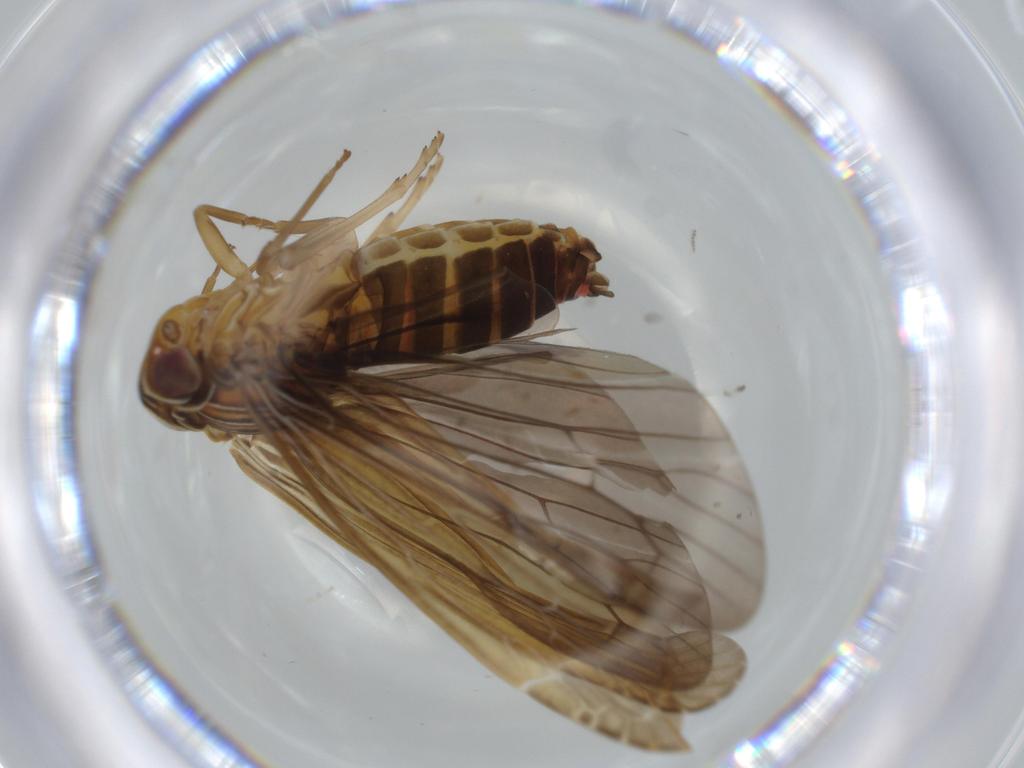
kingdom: Animalia
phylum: Arthropoda
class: Insecta
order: Hemiptera
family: Achilidae
